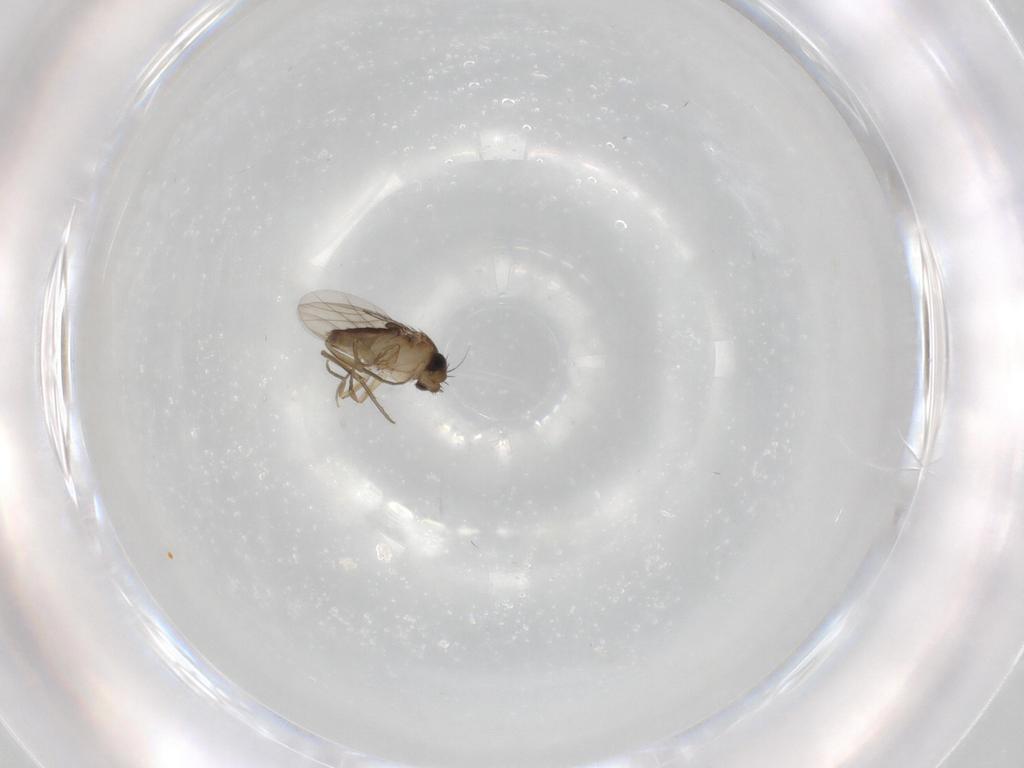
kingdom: Animalia
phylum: Arthropoda
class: Insecta
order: Diptera
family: Phoridae
